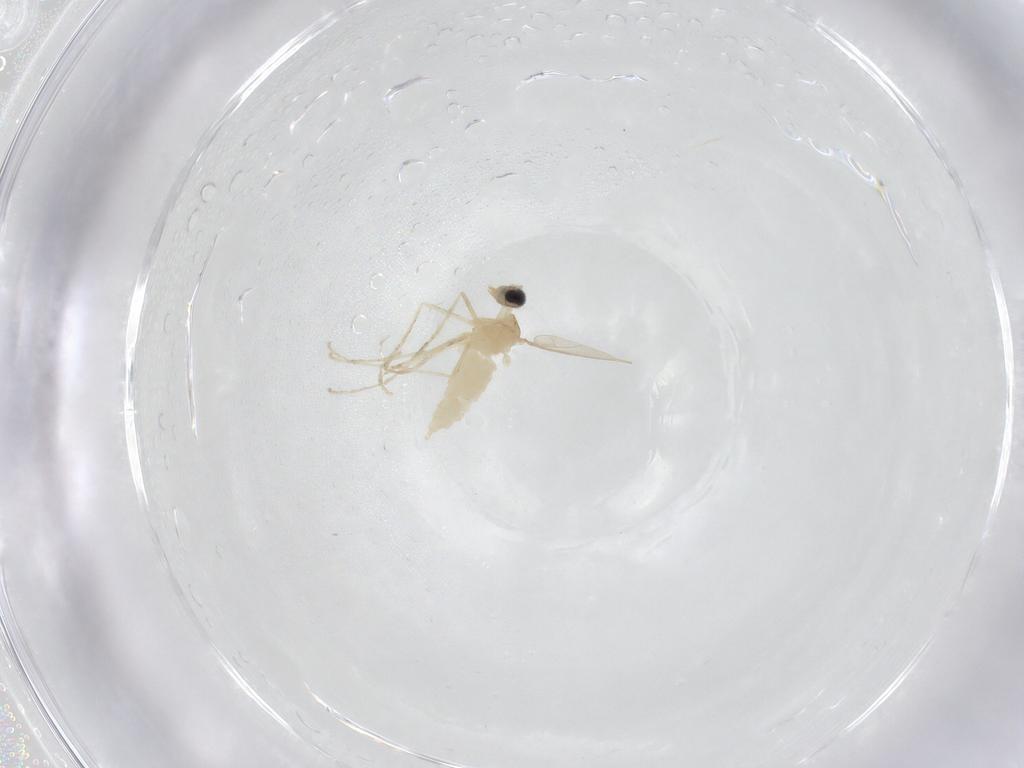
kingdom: Animalia
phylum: Arthropoda
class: Insecta
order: Diptera
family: Cecidomyiidae
